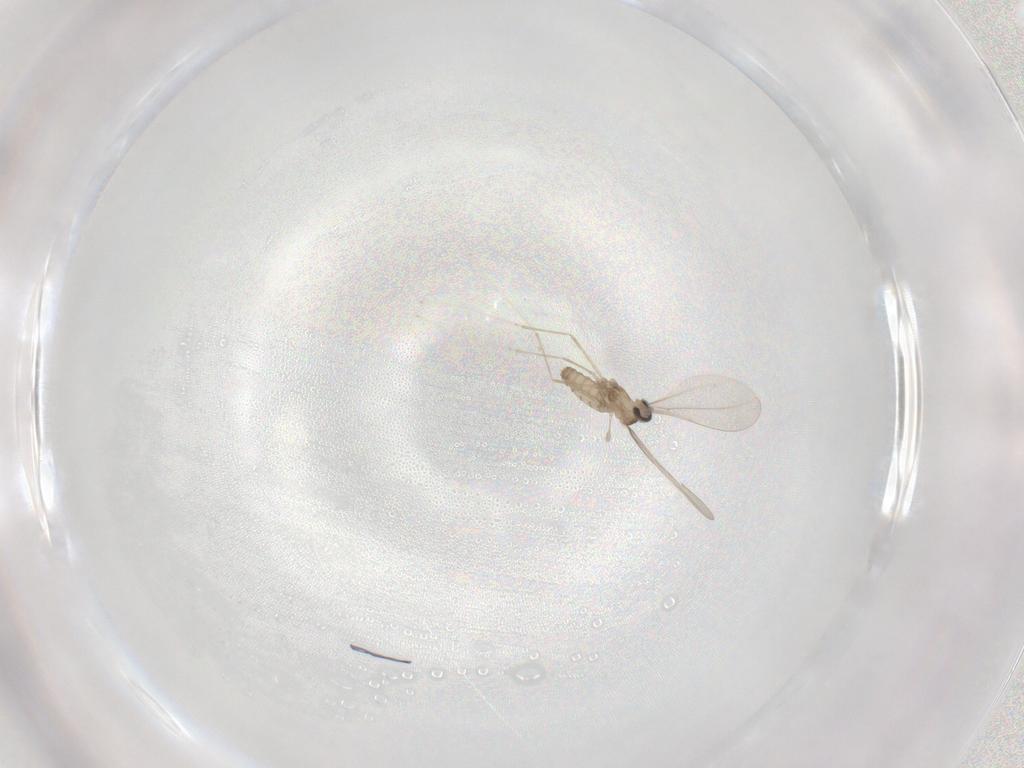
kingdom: Animalia
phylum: Arthropoda
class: Insecta
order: Diptera
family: Cecidomyiidae
